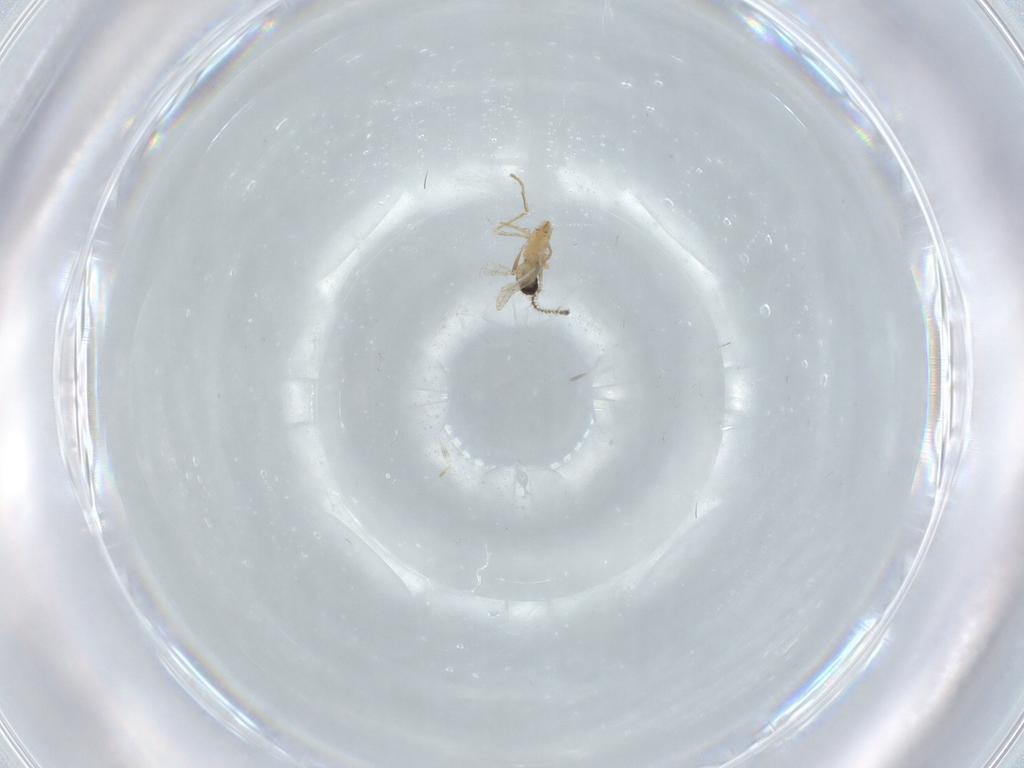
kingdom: Animalia
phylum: Arthropoda
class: Insecta
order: Diptera
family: Cecidomyiidae
